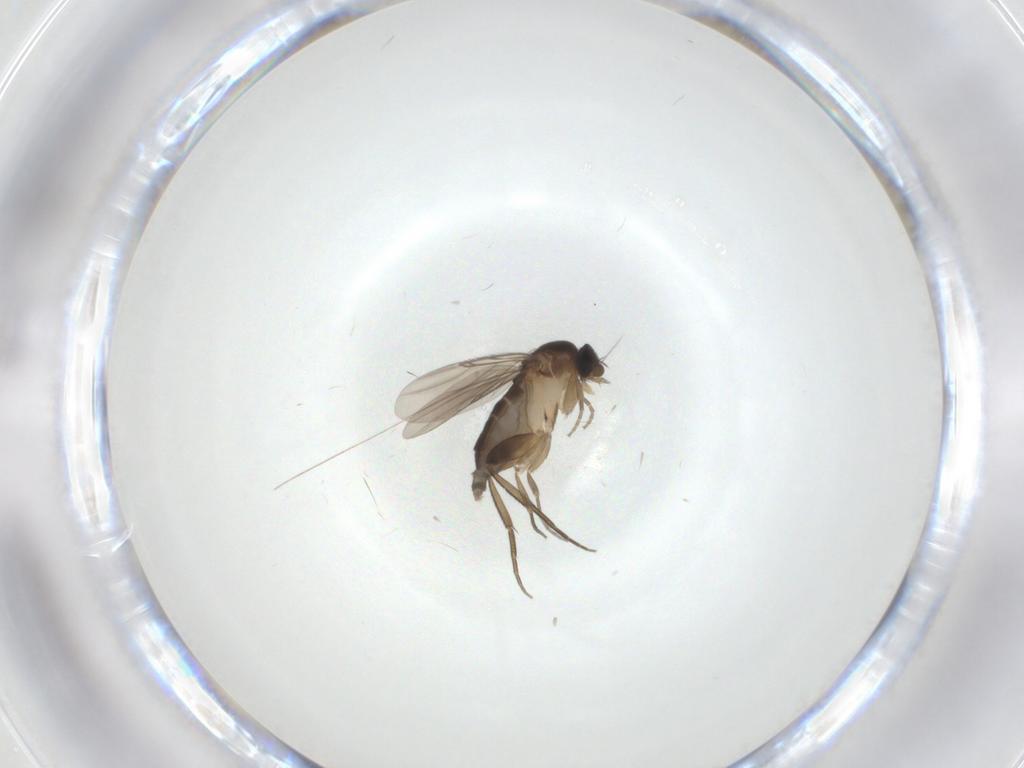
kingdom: Animalia
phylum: Arthropoda
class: Insecta
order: Diptera
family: Phoridae
